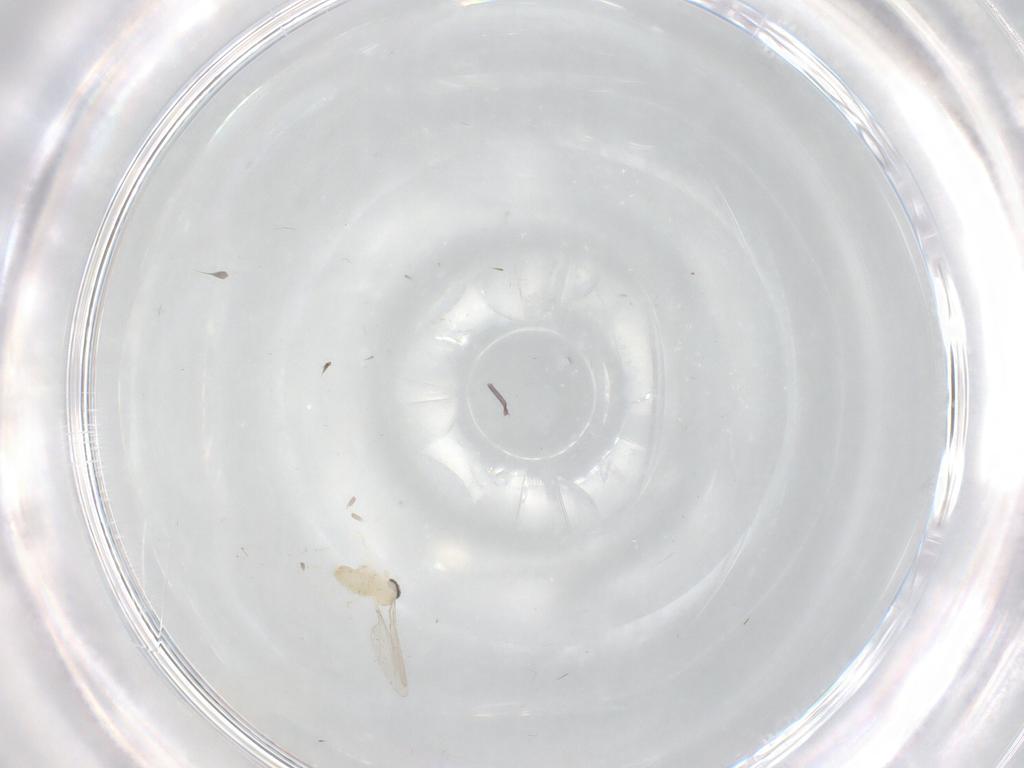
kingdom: Animalia
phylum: Arthropoda
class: Insecta
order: Diptera
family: Cecidomyiidae
